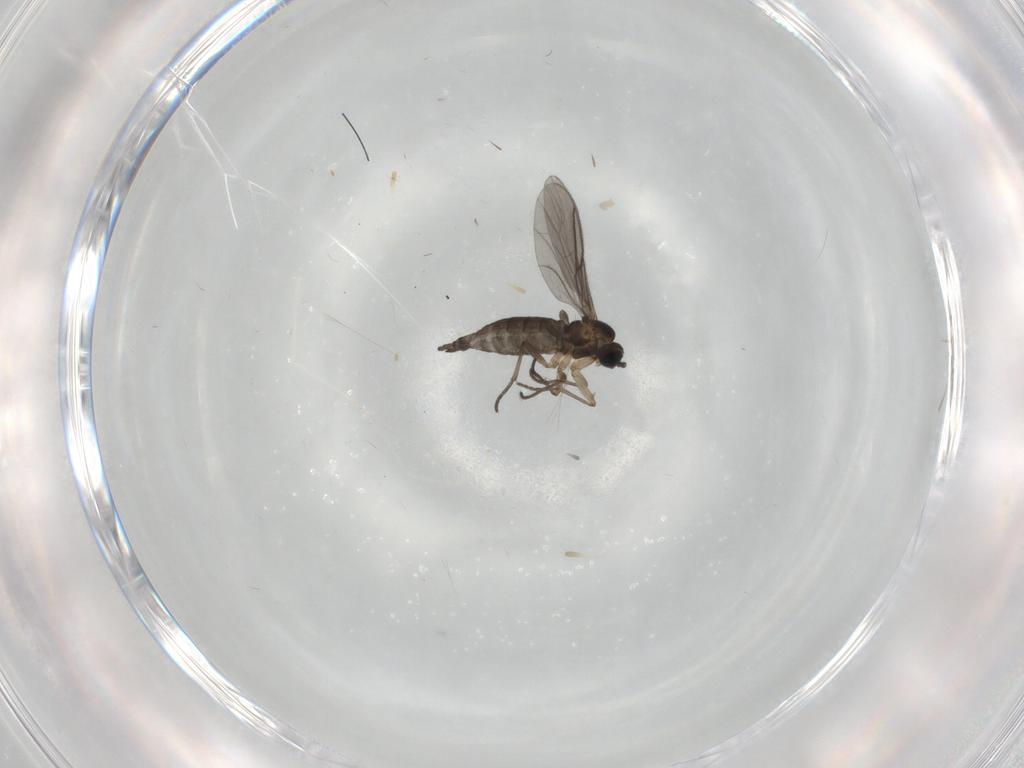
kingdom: Animalia
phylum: Arthropoda
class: Insecta
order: Diptera
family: Sciaridae
